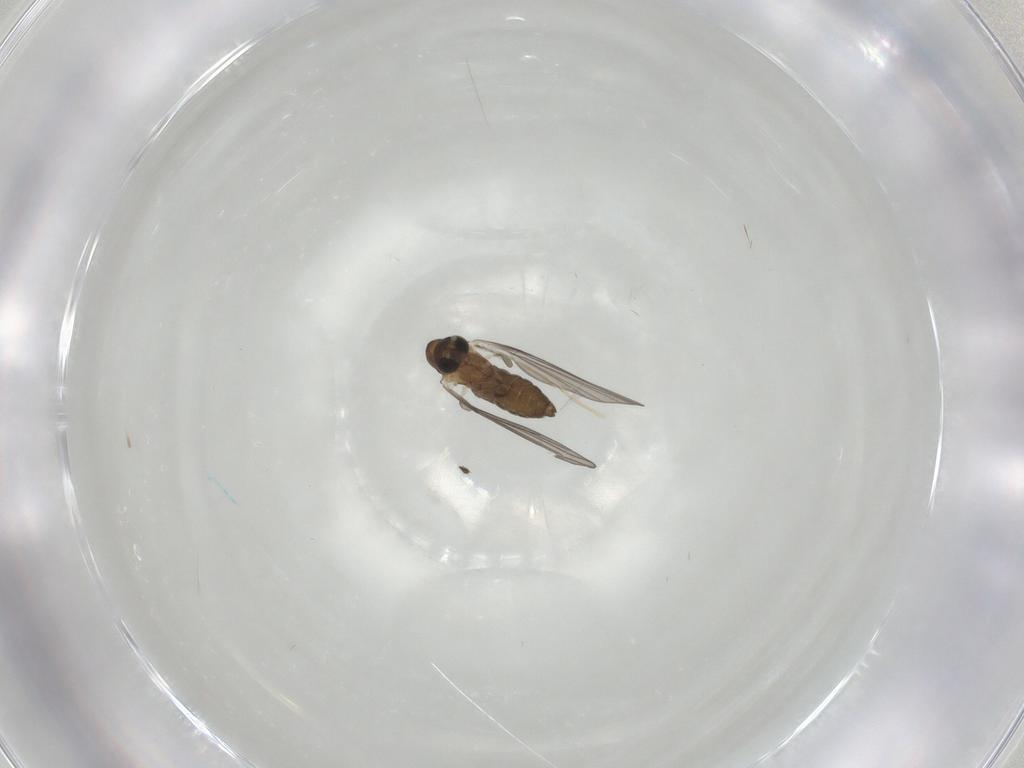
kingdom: Animalia
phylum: Arthropoda
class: Insecta
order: Diptera
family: Psychodidae
